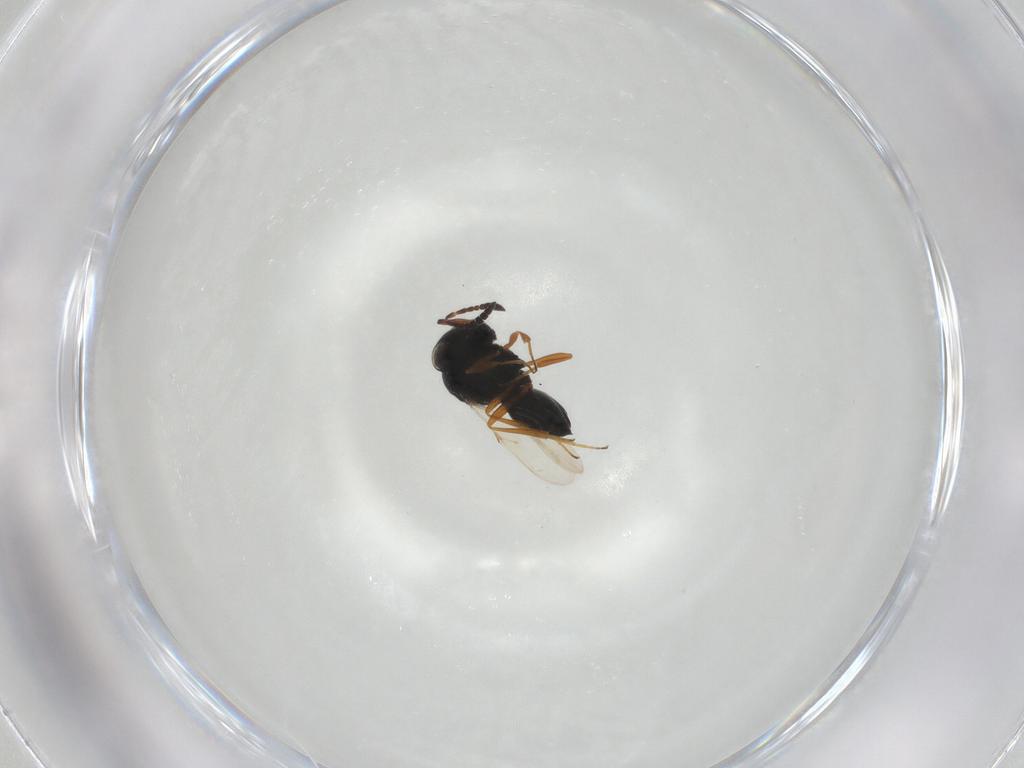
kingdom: Animalia
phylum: Arthropoda
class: Insecta
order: Hymenoptera
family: Scelionidae
